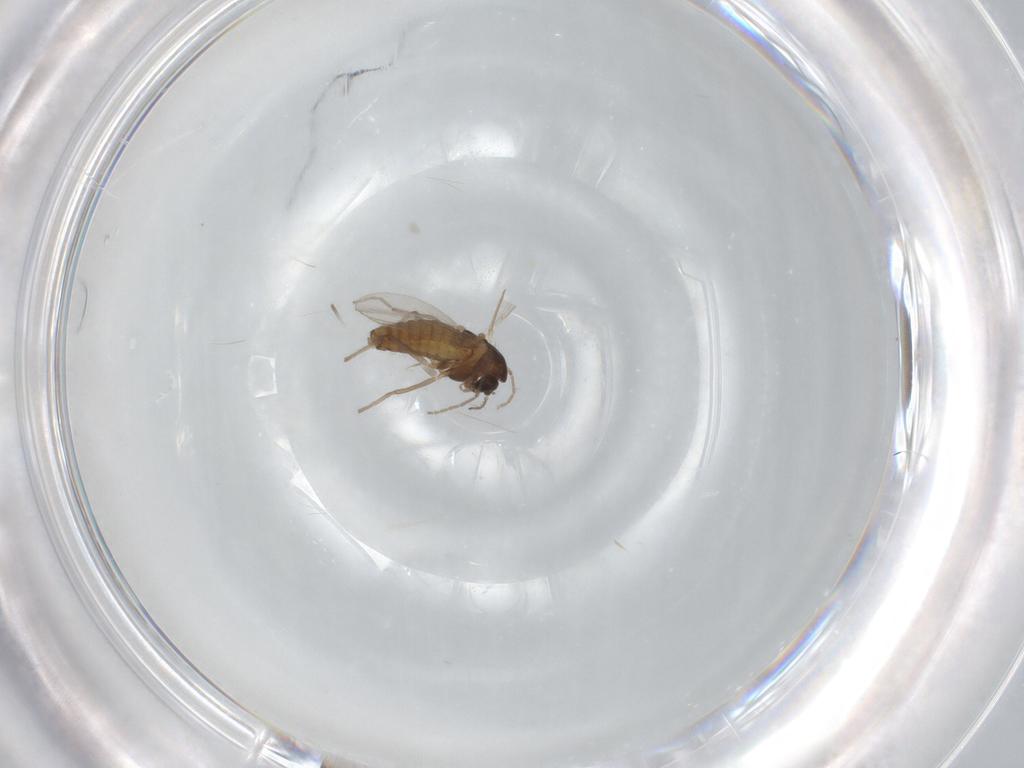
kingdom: Animalia
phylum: Arthropoda
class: Insecta
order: Diptera
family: Chironomidae
